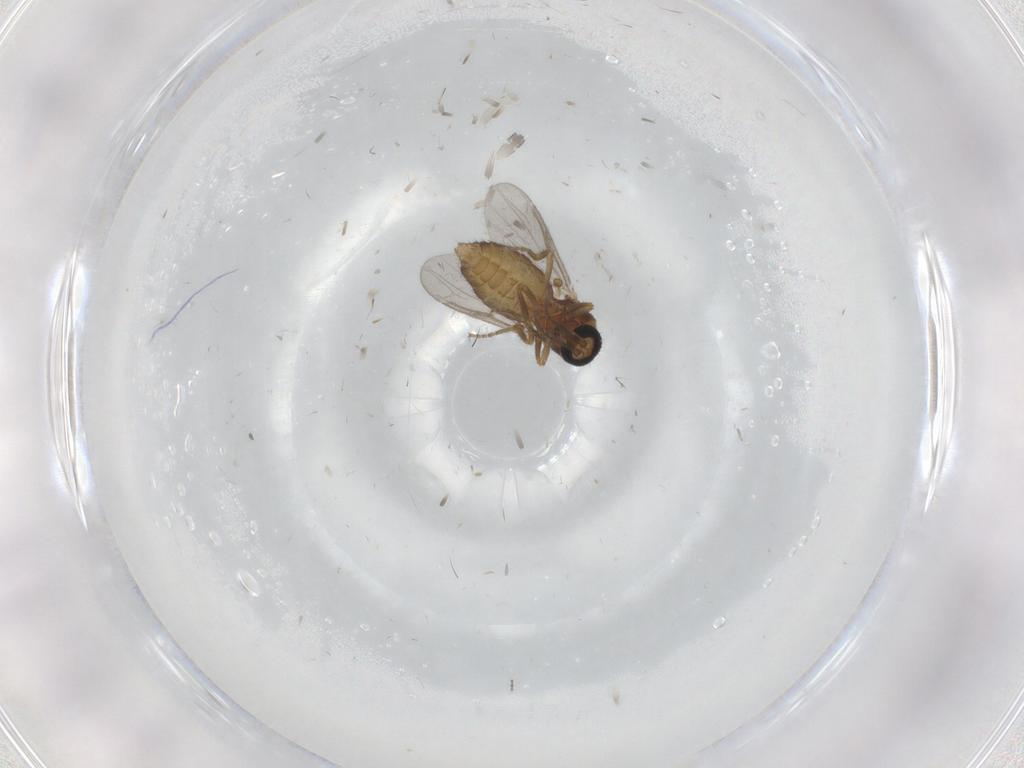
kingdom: Animalia
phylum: Arthropoda
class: Insecta
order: Diptera
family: Ceratopogonidae
